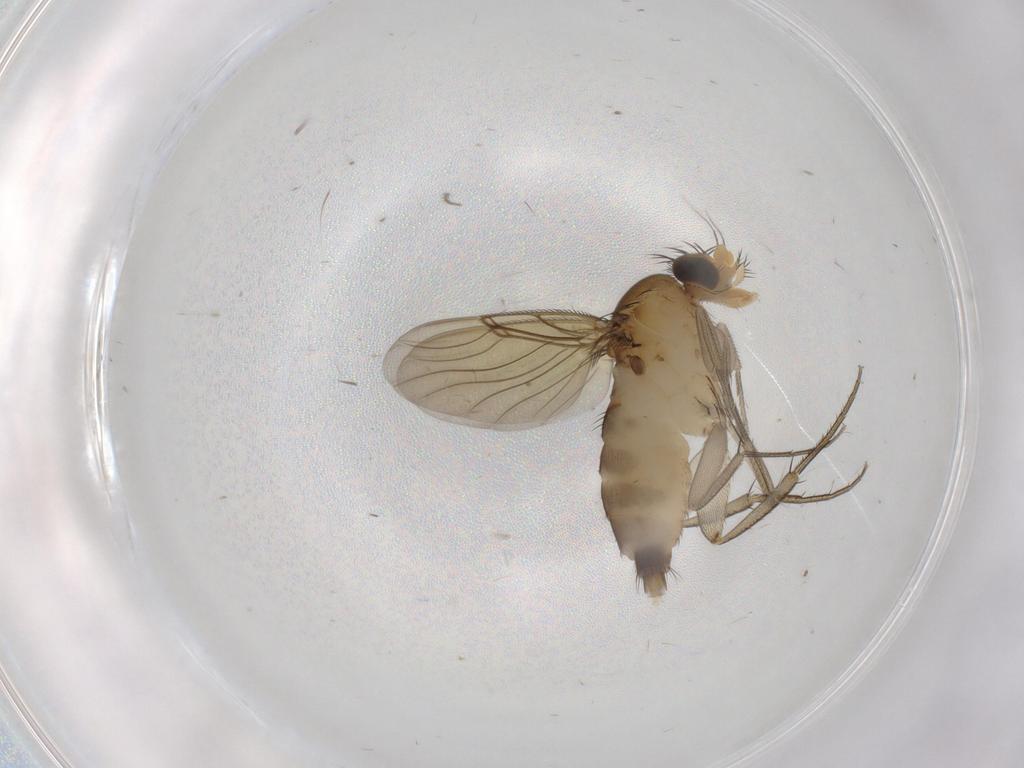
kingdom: Animalia
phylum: Arthropoda
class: Insecta
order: Diptera
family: Phoridae
